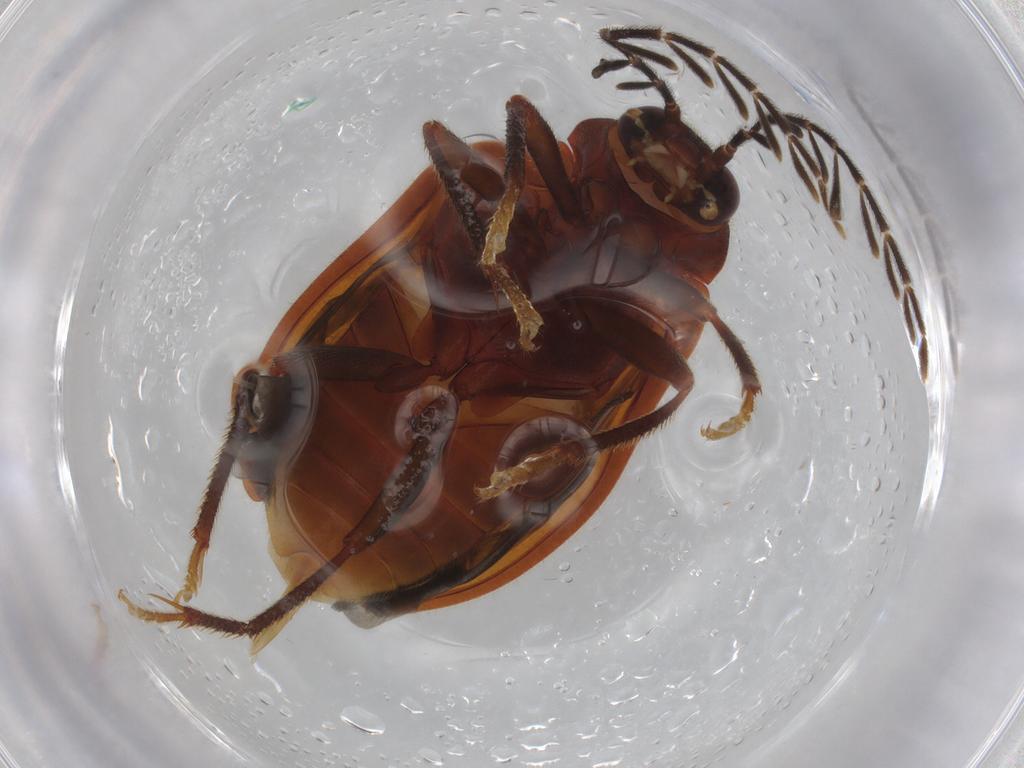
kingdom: Animalia
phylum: Arthropoda
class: Insecta
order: Coleoptera
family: Ptilodactylidae
